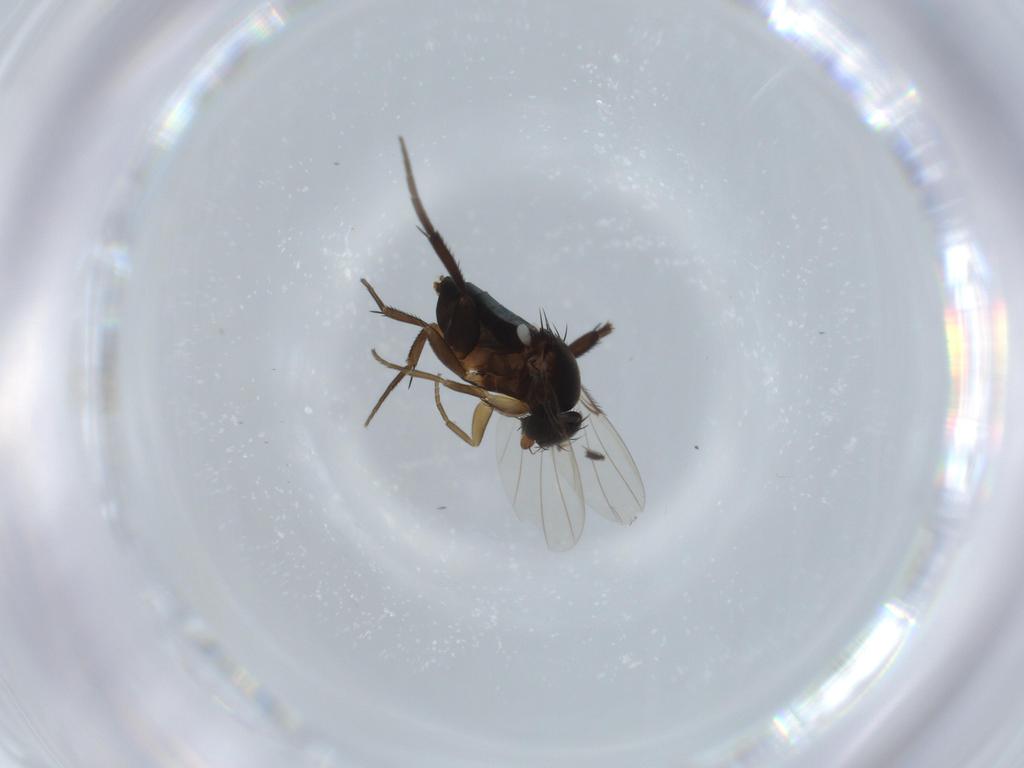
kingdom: Animalia
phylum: Arthropoda
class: Insecta
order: Diptera
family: Phoridae
